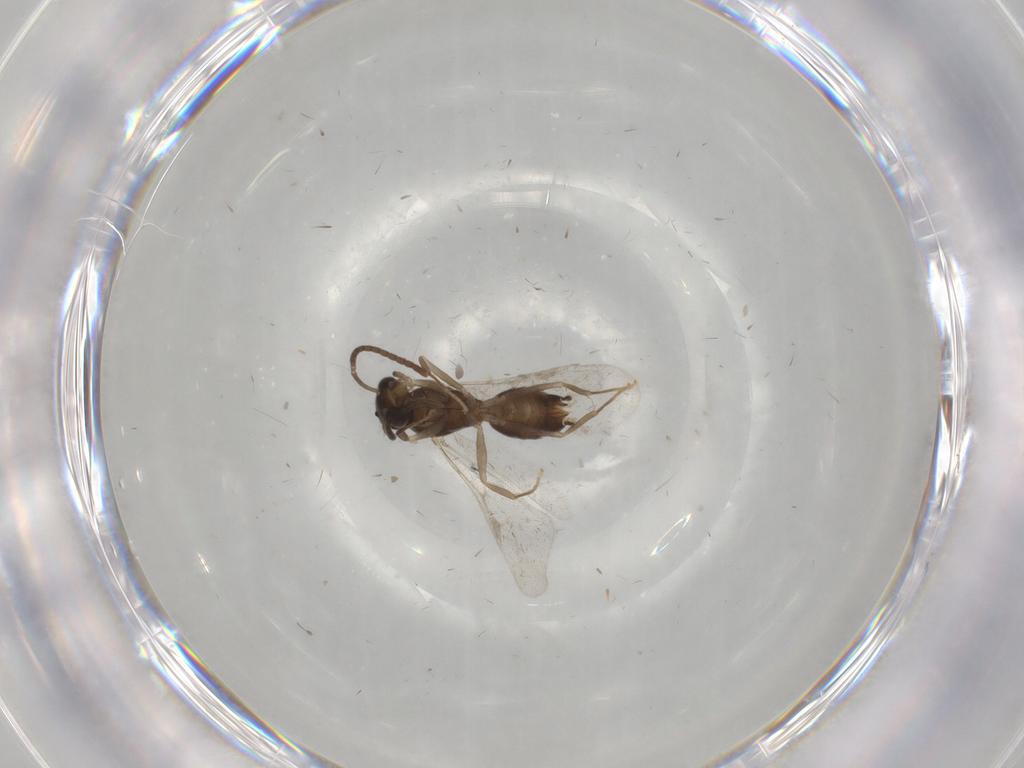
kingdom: Animalia
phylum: Arthropoda
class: Insecta
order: Hymenoptera
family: Formicidae
